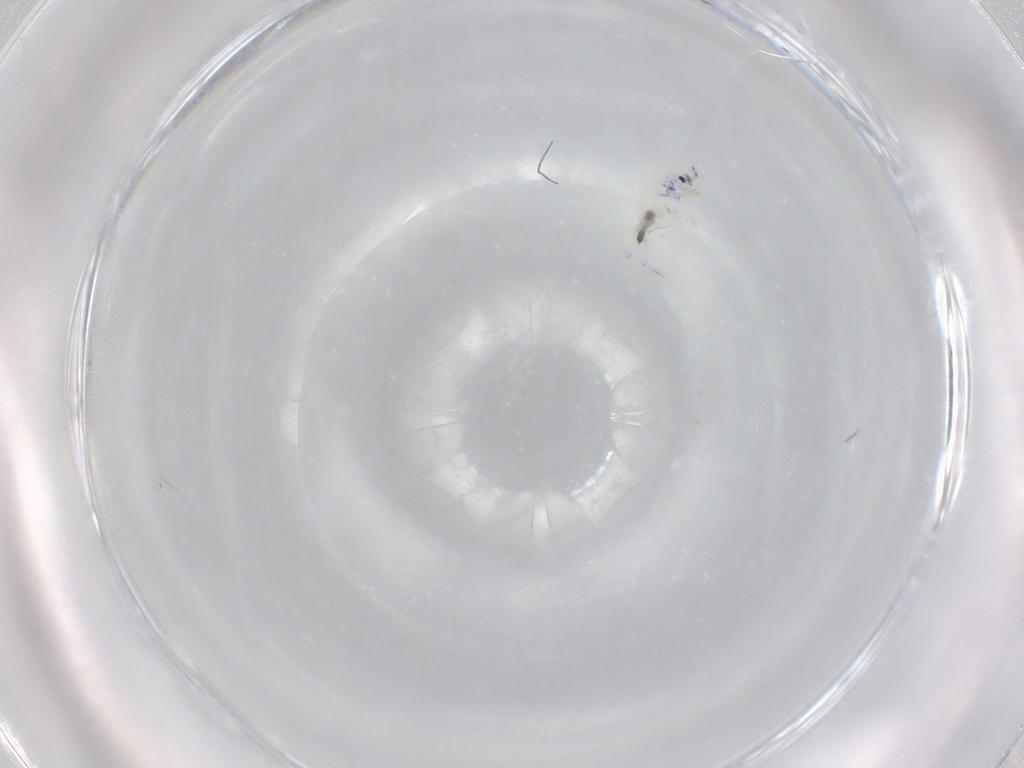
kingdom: Animalia
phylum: Arthropoda
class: Collembola
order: Entomobryomorpha
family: Entomobryidae
